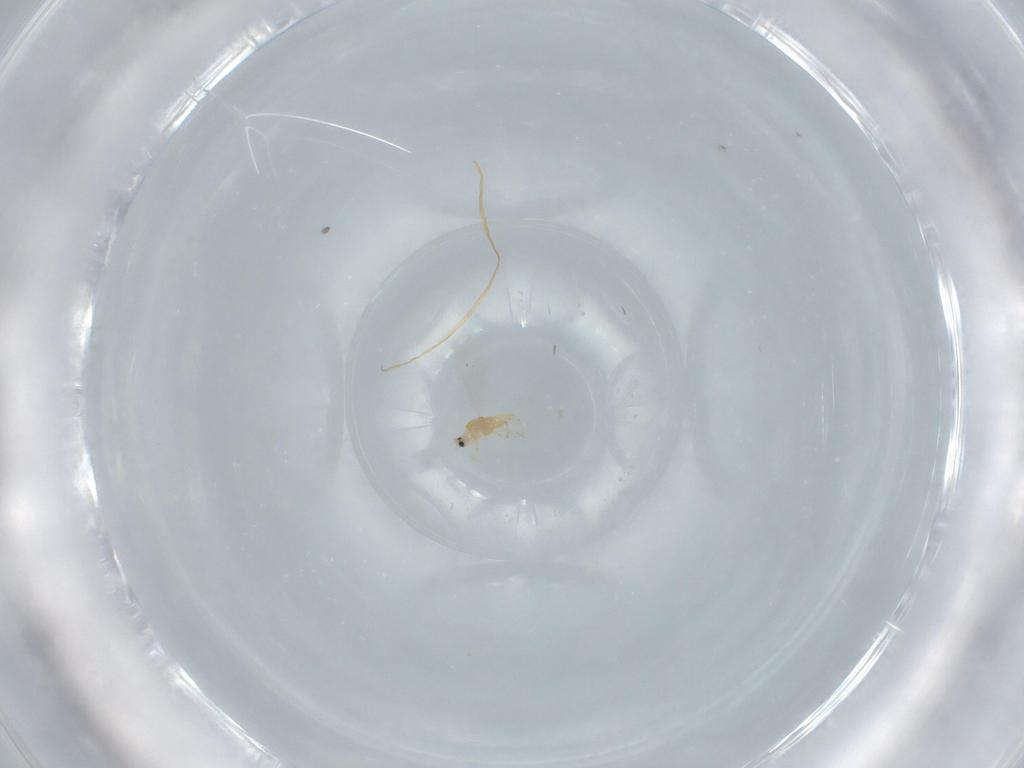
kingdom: Animalia
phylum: Arthropoda
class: Insecta
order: Hemiptera
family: Diaspididae
